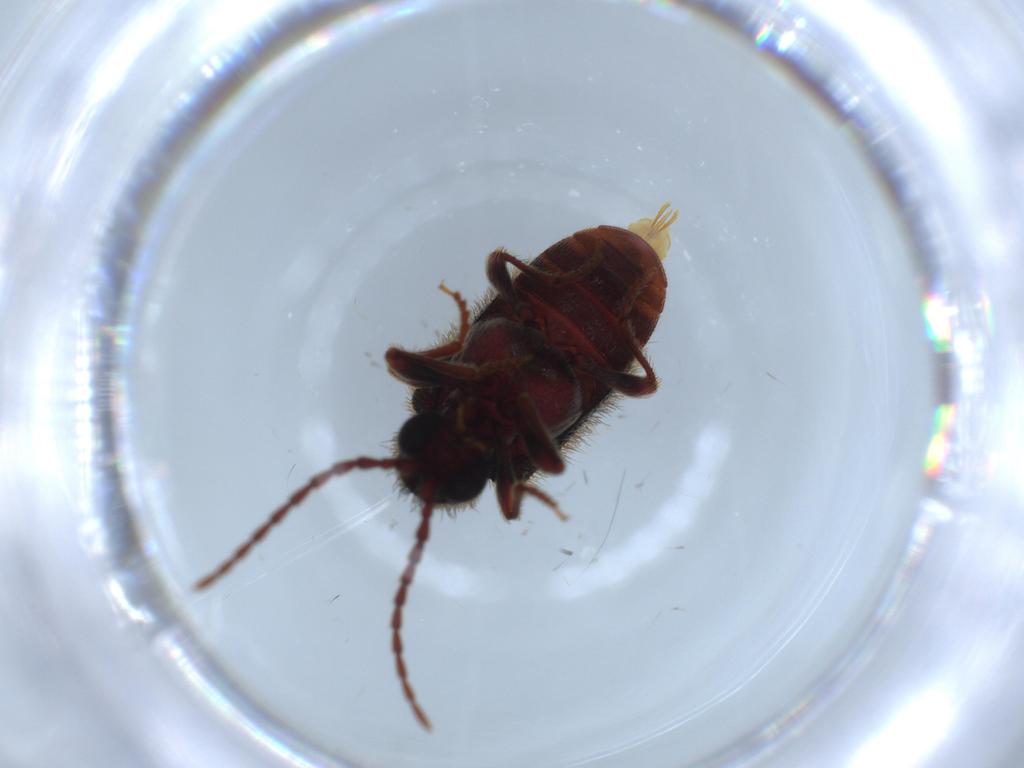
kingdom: Animalia
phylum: Arthropoda
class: Insecta
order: Coleoptera
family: Ptinidae
